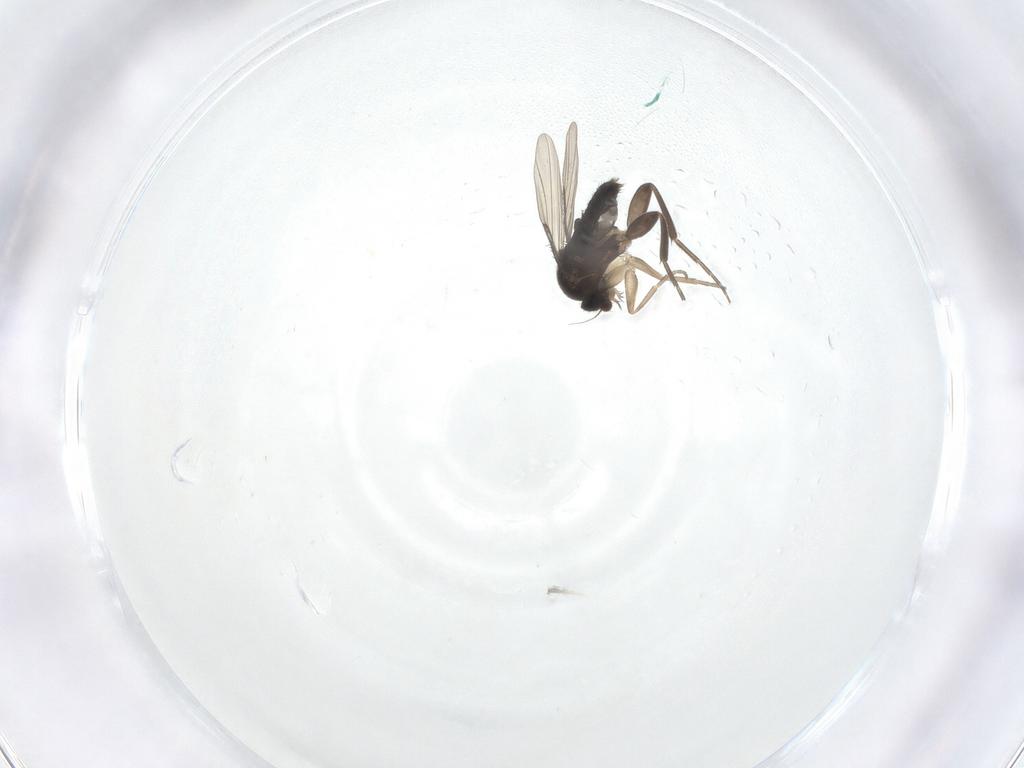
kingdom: Animalia
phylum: Arthropoda
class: Insecta
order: Diptera
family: Phoridae
